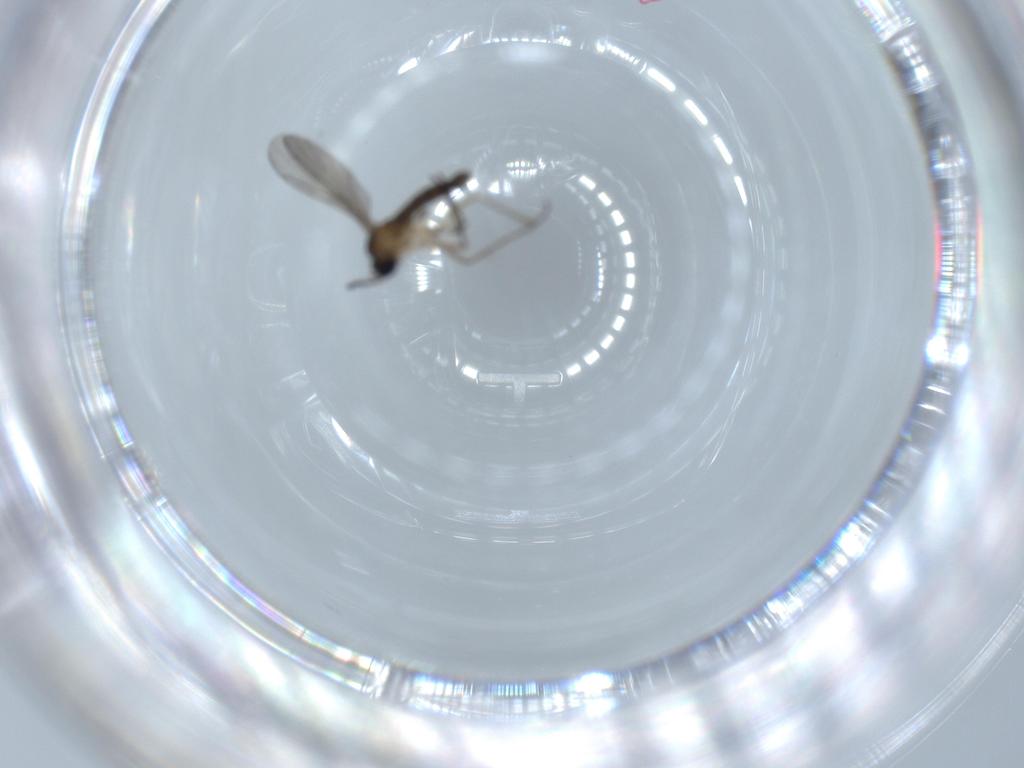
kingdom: Animalia
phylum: Arthropoda
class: Insecta
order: Diptera
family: Sciaridae
